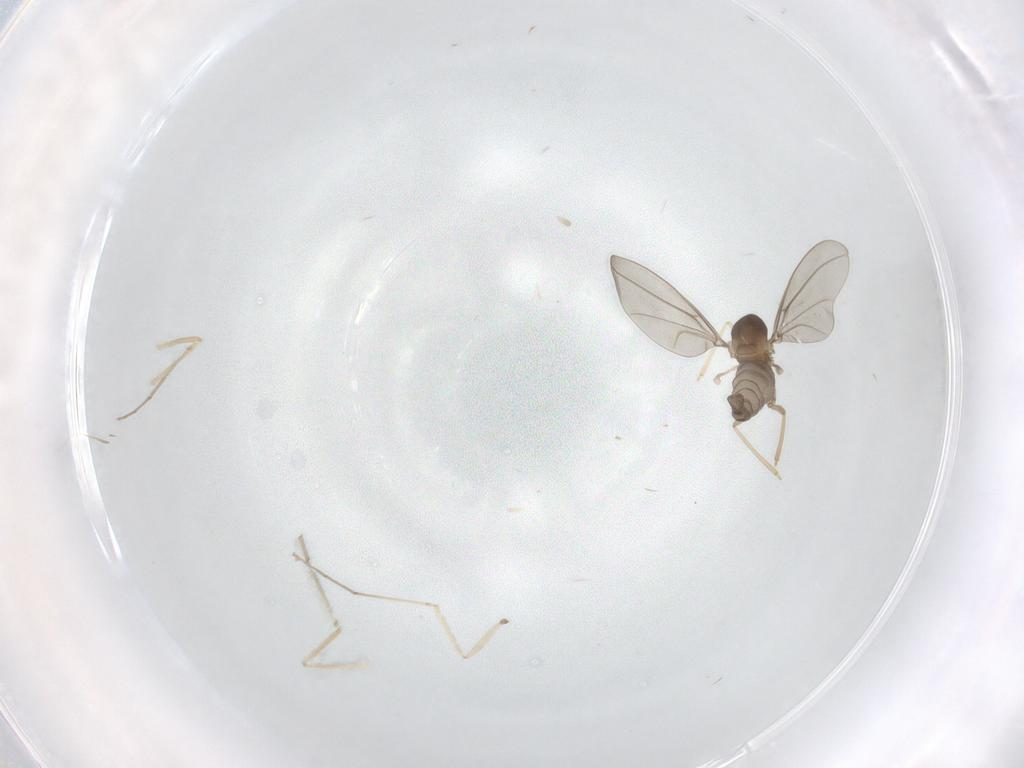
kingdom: Animalia
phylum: Arthropoda
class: Insecta
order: Diptera
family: Cecidomyiidae
